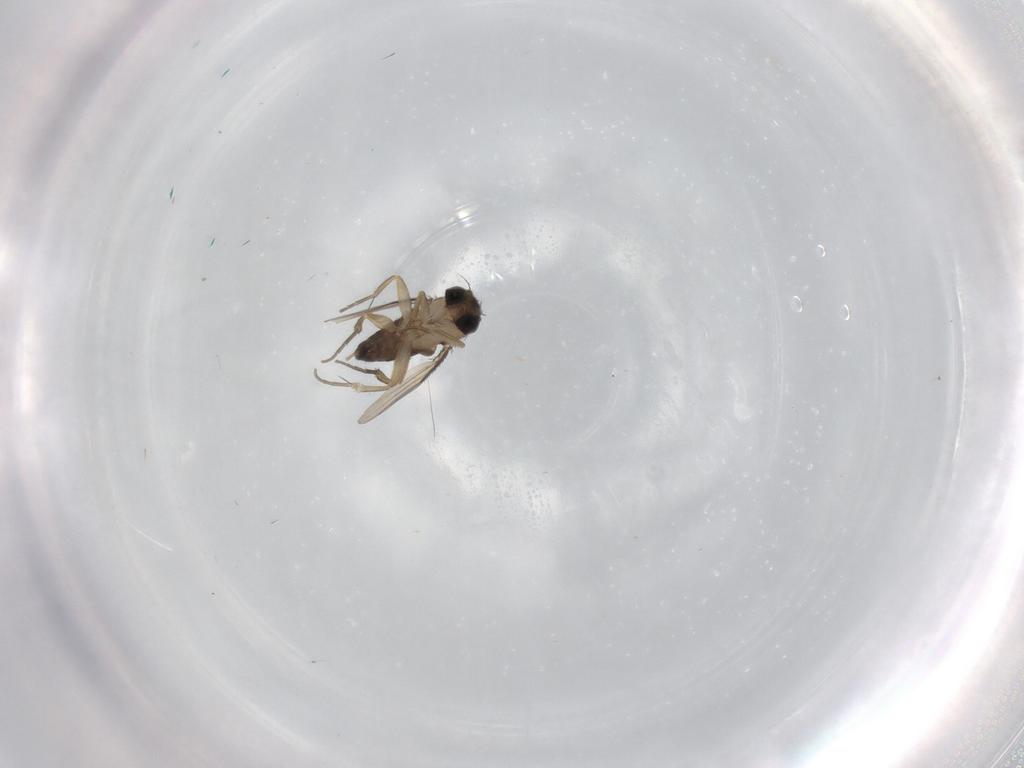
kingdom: Animalia
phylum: Arthropoda
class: Insecta
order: Diptera
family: Phoridae
